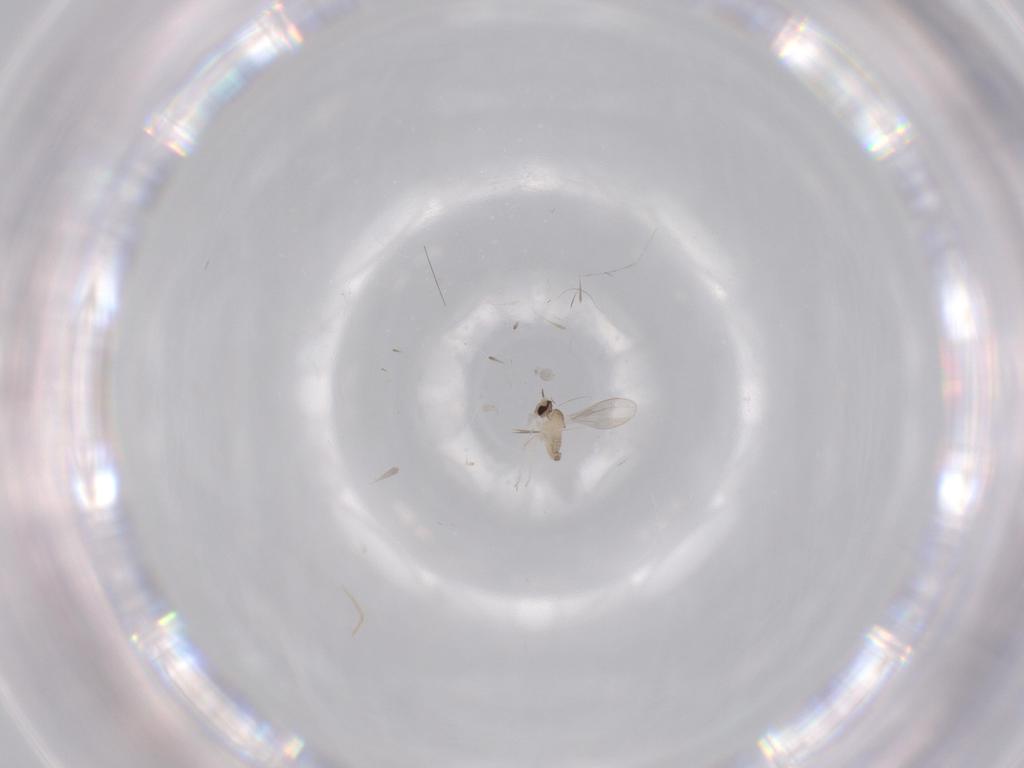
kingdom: Animalia
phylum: Arthropoda
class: Insecta
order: Diptera
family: Cecidomyiidae
